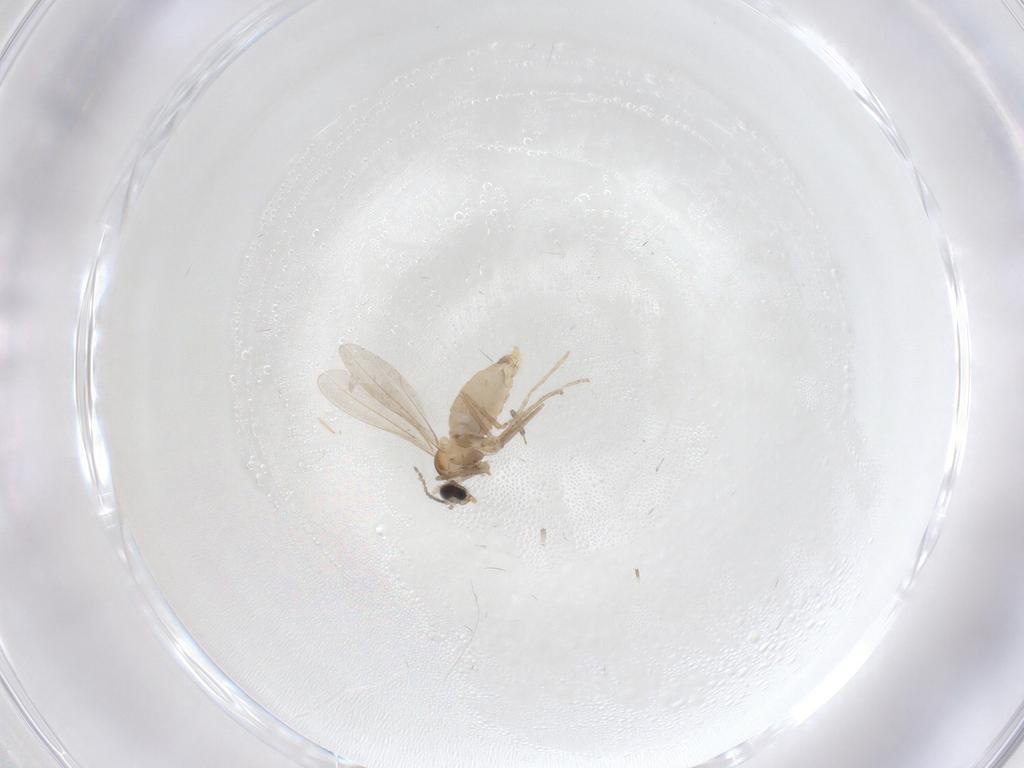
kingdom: Animalia
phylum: Arthropoda
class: Insecta
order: Diptera
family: Cecidomyiidae
